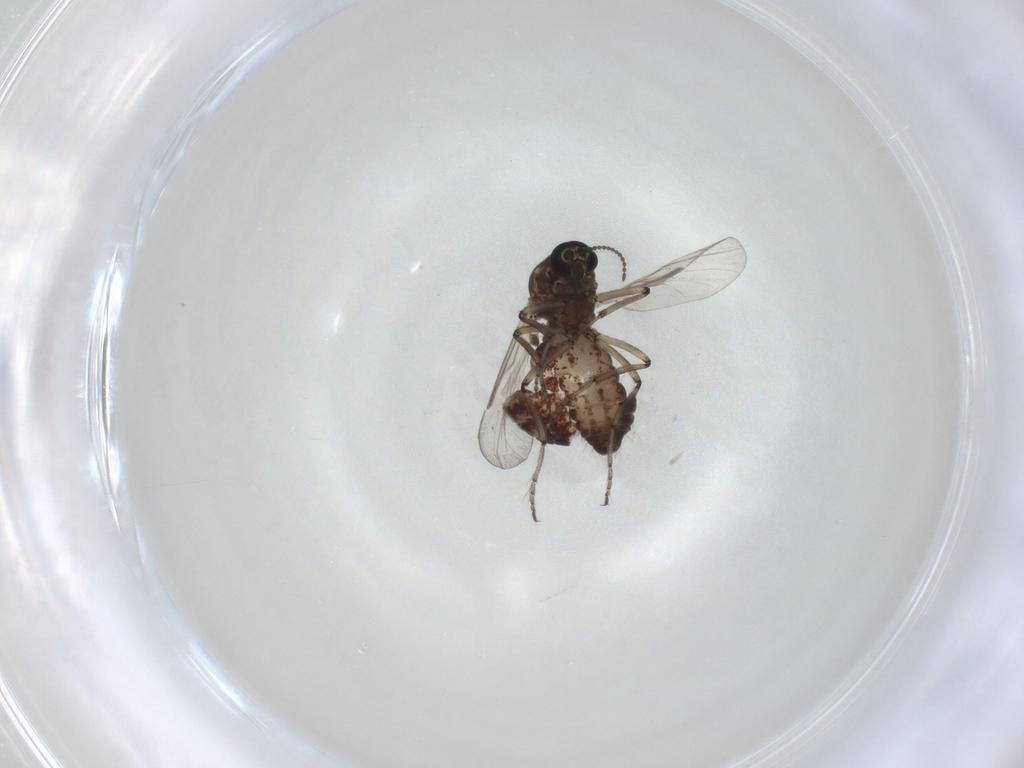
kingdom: Animalia
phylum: Arthropoda
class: Insecta
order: Diptera
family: Ceratopogonidae
